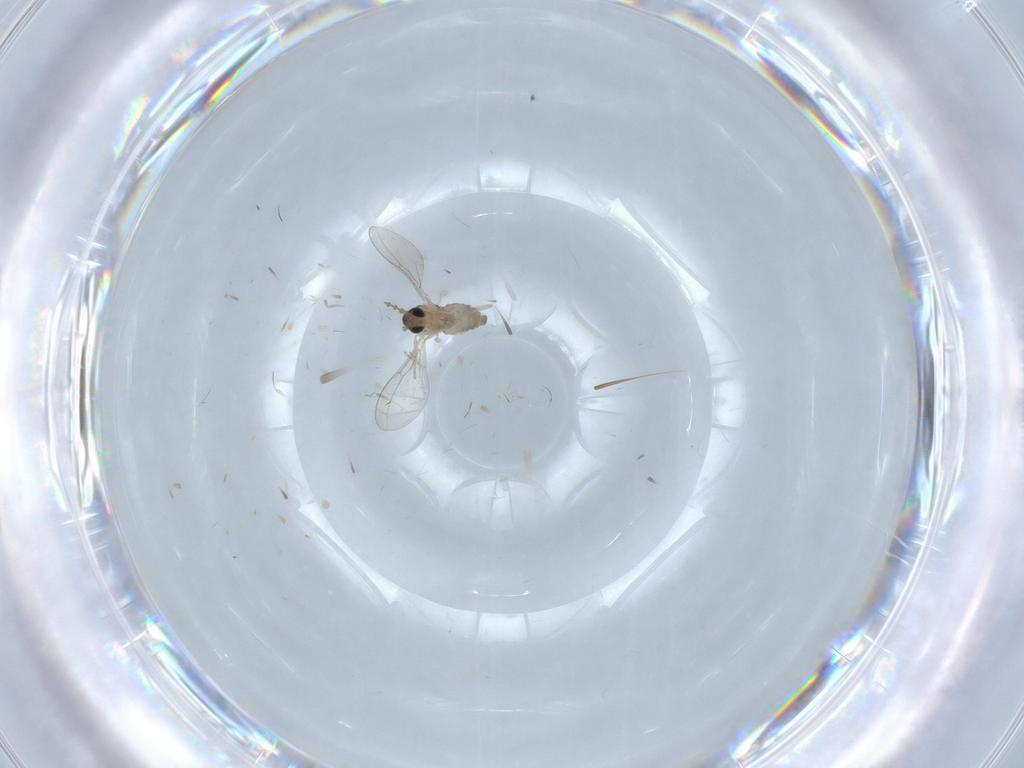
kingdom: Animalia
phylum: Arthropoda
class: Insecta
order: Diptera
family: Cecidomyiidae
